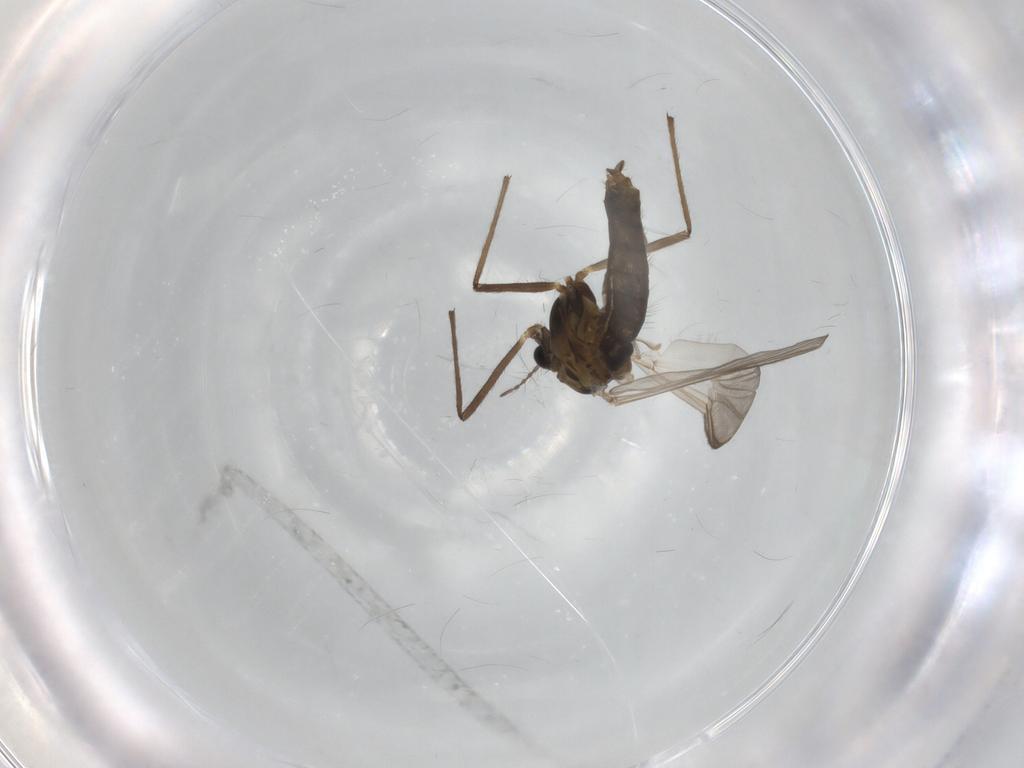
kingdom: Animalia
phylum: Arthropoda
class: Insecta
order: Diptera
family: Chironomidae
